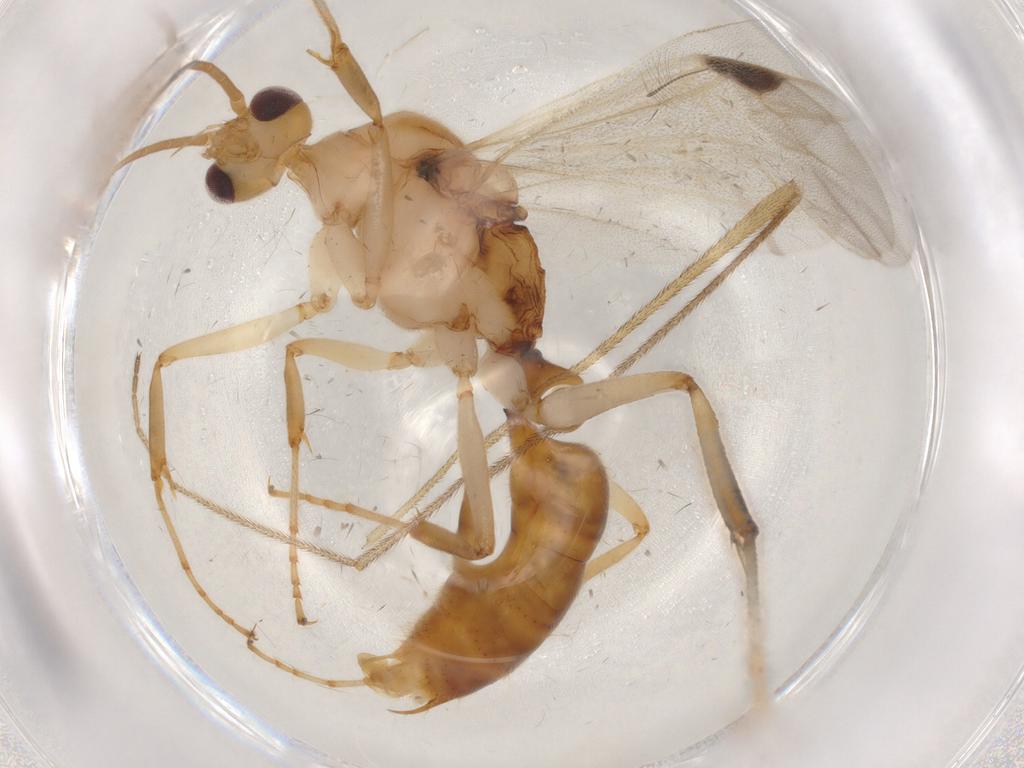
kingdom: Animalia
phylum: Arthropoda
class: Insecta
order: Hymenoptera
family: Formicidae
